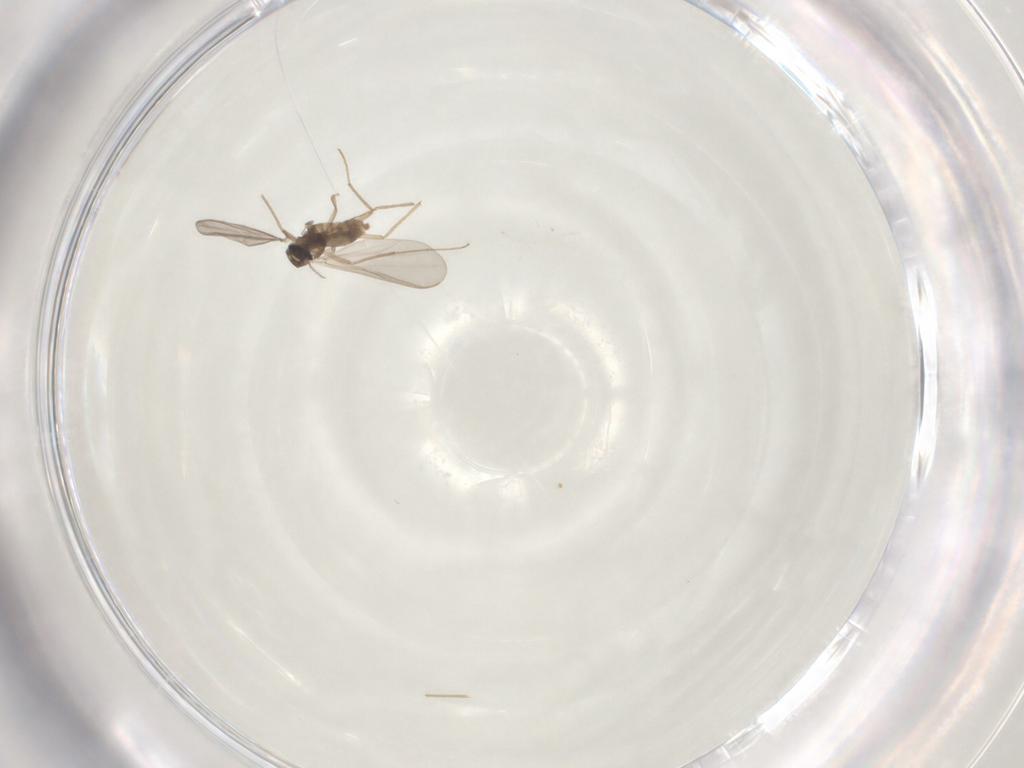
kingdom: Animalia
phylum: Arthropoda
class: Insecta
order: Diptera
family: Chironomidae
